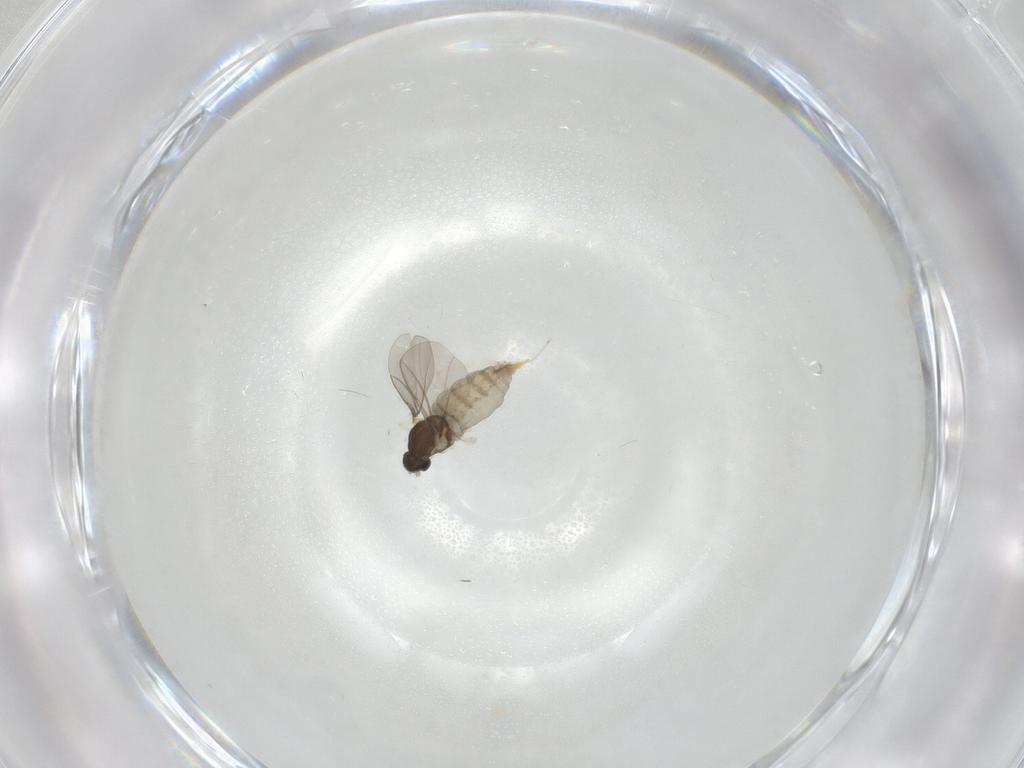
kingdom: Animalia
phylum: Arthropoda
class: Insecta
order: Diptera
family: Cecidomyiidae
